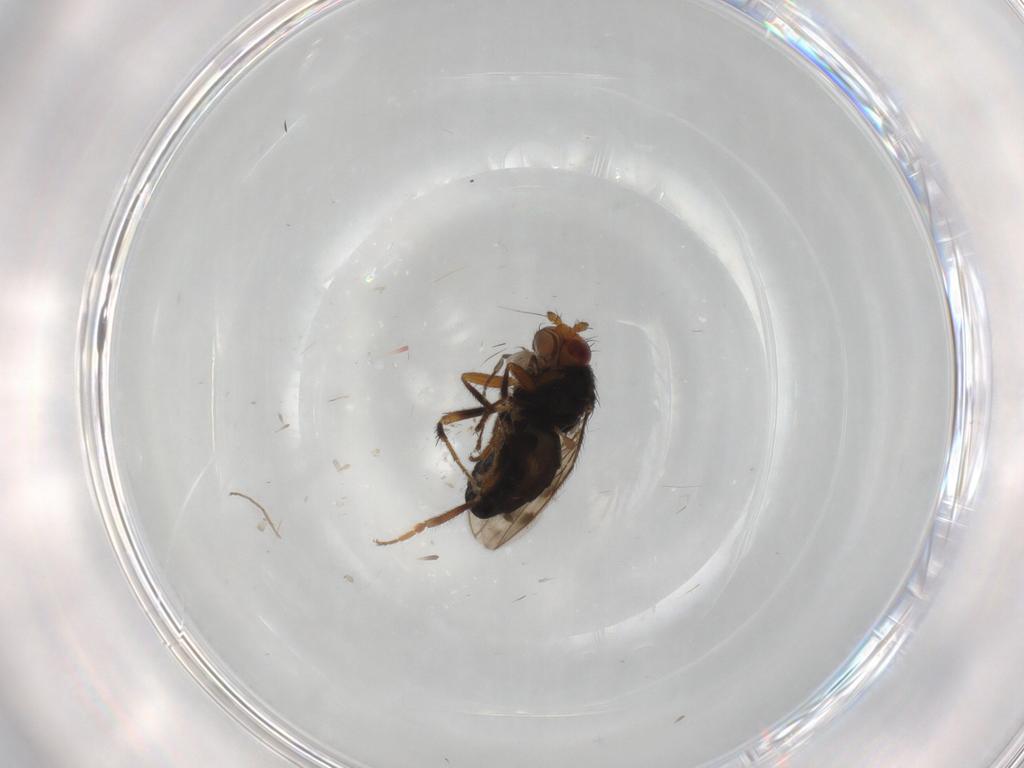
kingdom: Animalia
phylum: Arthropoda
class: Insecta
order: Diptera
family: Sphaeroceridae
